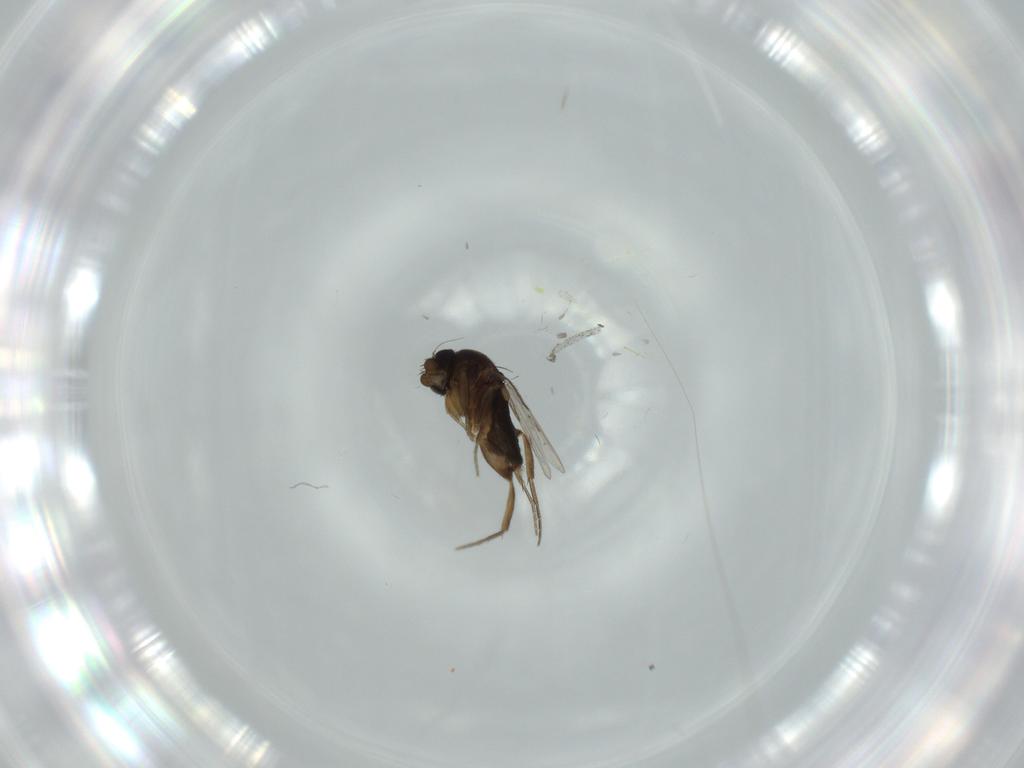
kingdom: Animalia
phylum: Arthropoda
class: Insecta
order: Diptera
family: Phoridae
